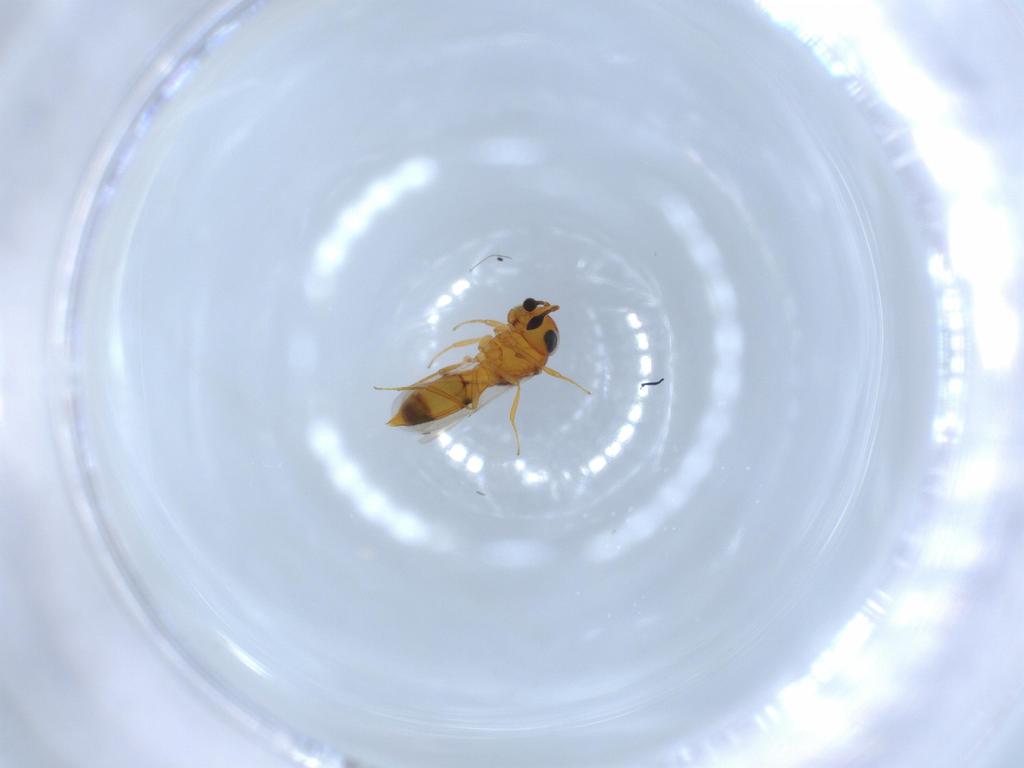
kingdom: Animalia
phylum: Arthropoda
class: Insecta
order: Hymenoptera
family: Scelionidae
